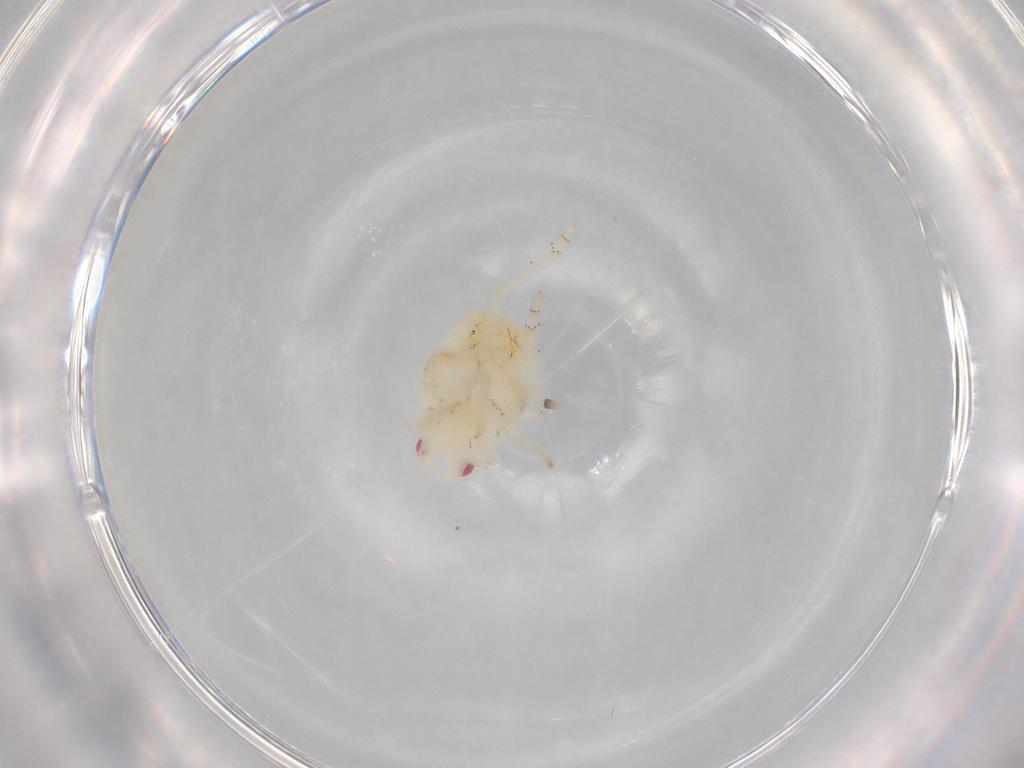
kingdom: Animalia
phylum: Arthropoda
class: Insecta
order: Hemiptera
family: Flatidae
